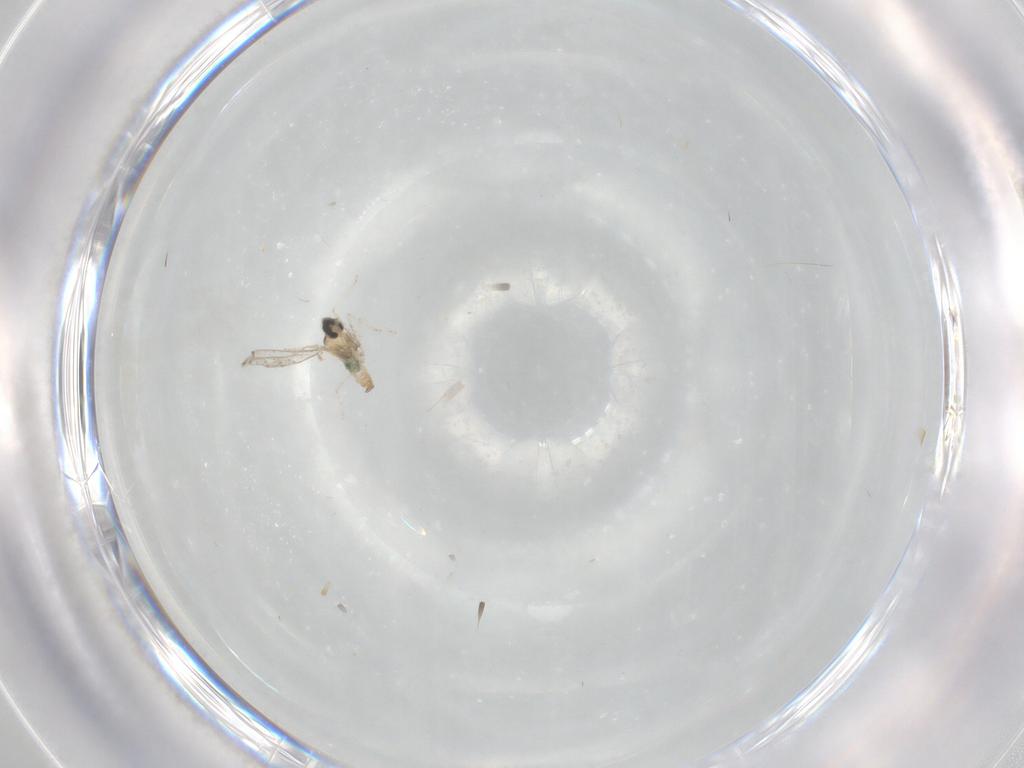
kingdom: Animalia
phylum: Arthropoda
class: Insecta
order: Diptera
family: Cecidomyiidae
